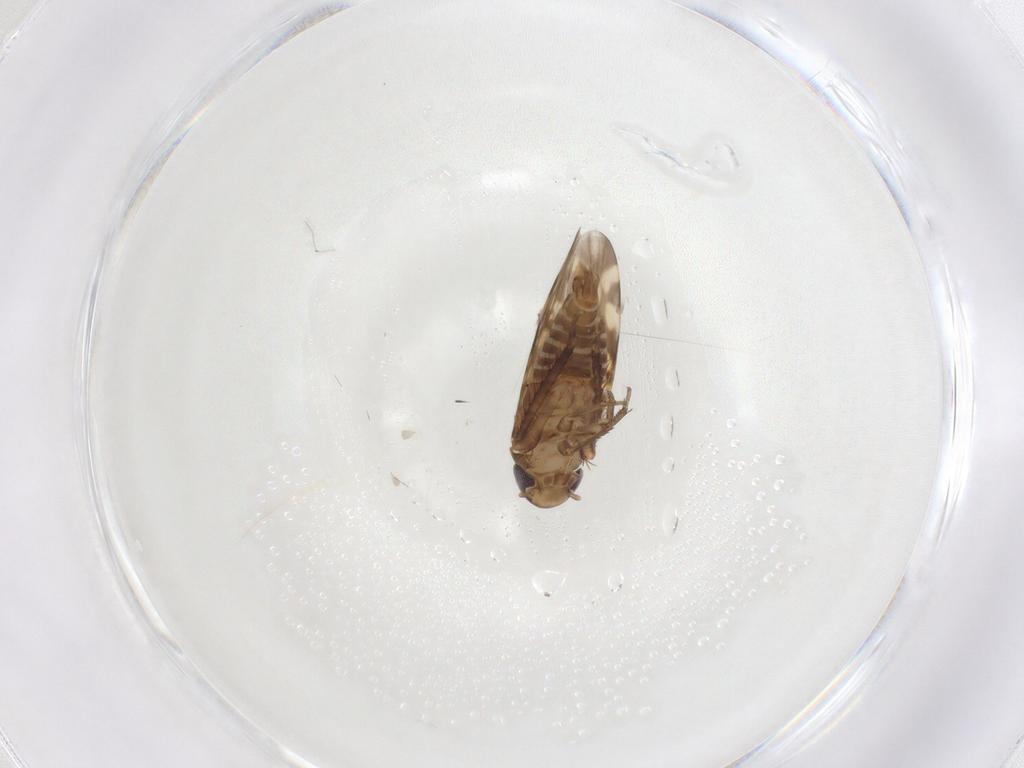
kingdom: Animalia
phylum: Arthropoda
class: Insecta
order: Hemiptera
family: Cicadellidae
